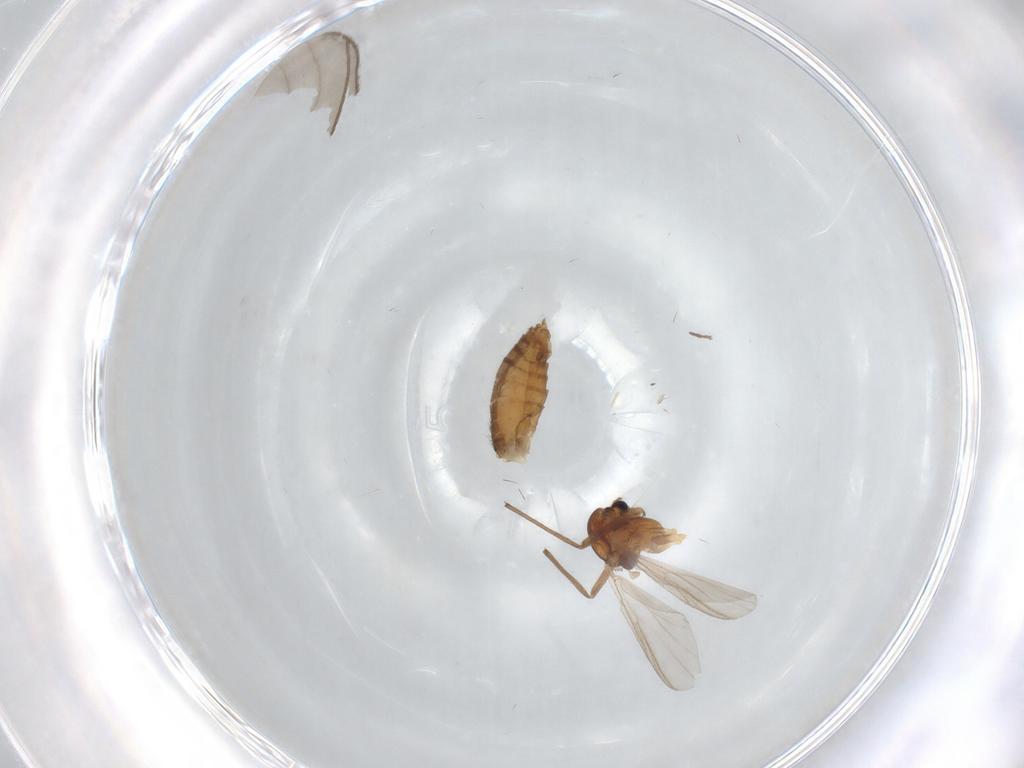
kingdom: Animalia
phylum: Arthropoda
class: Insecta
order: Diptera
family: Chironomidae
